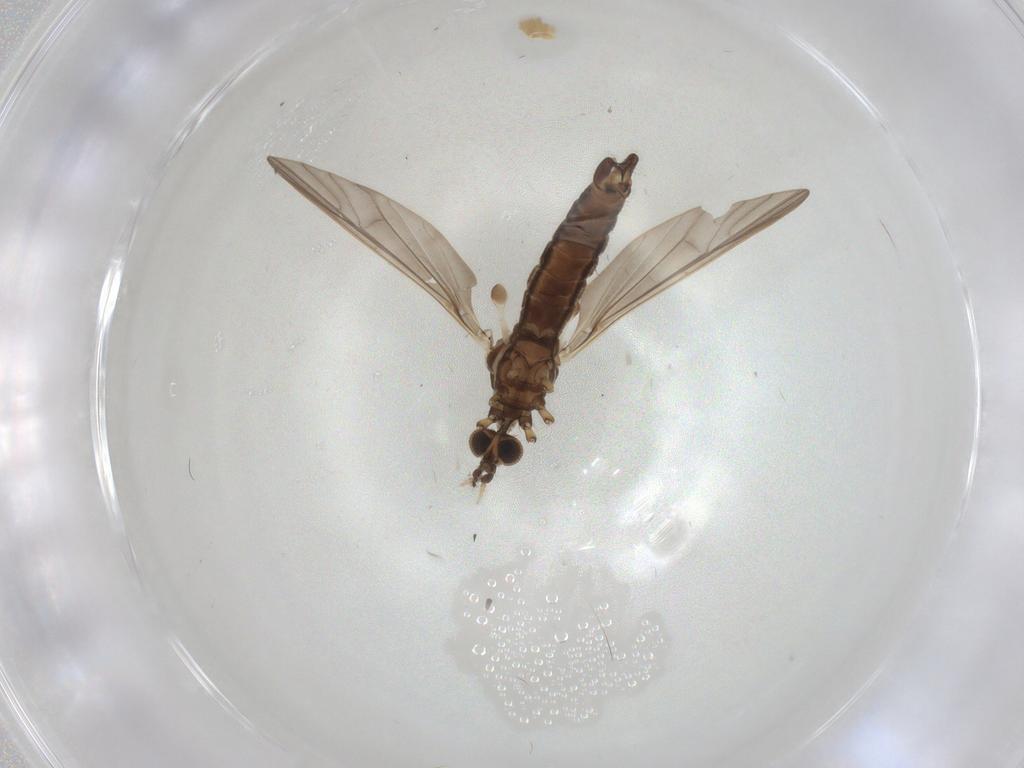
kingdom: Animalia
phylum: Arthropoda
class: Insecta
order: Diptera
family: Limoniidae
